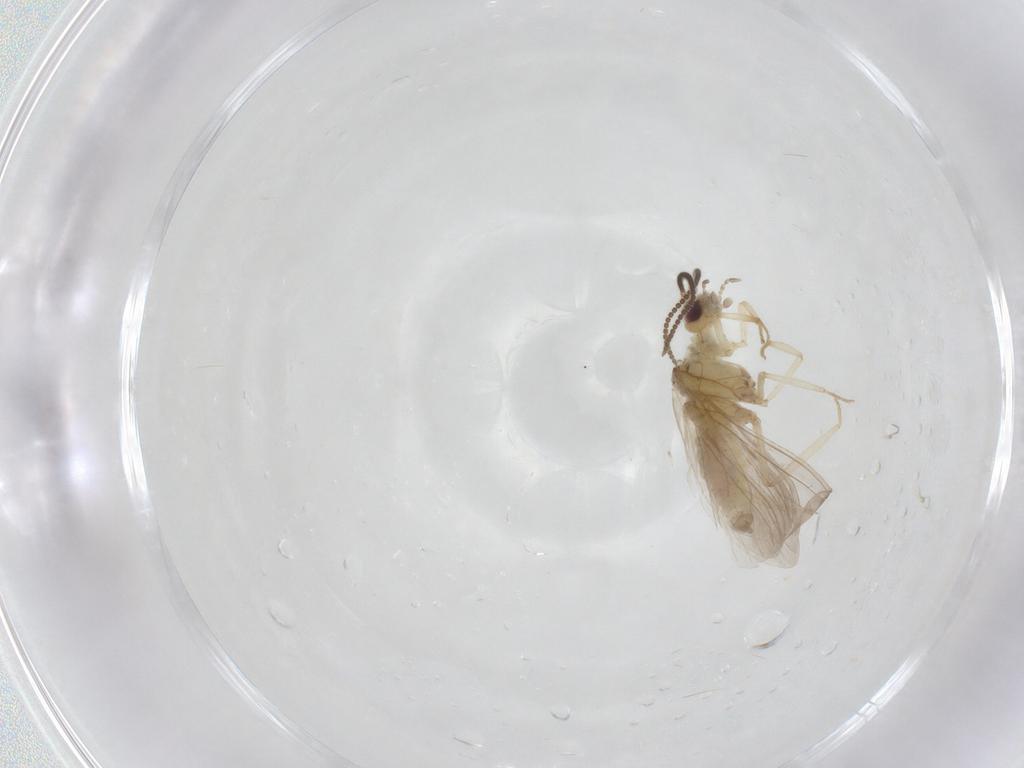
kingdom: Animalia
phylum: Arthropoda
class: Insecta
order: Neuroptera
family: Coniopterygidae
